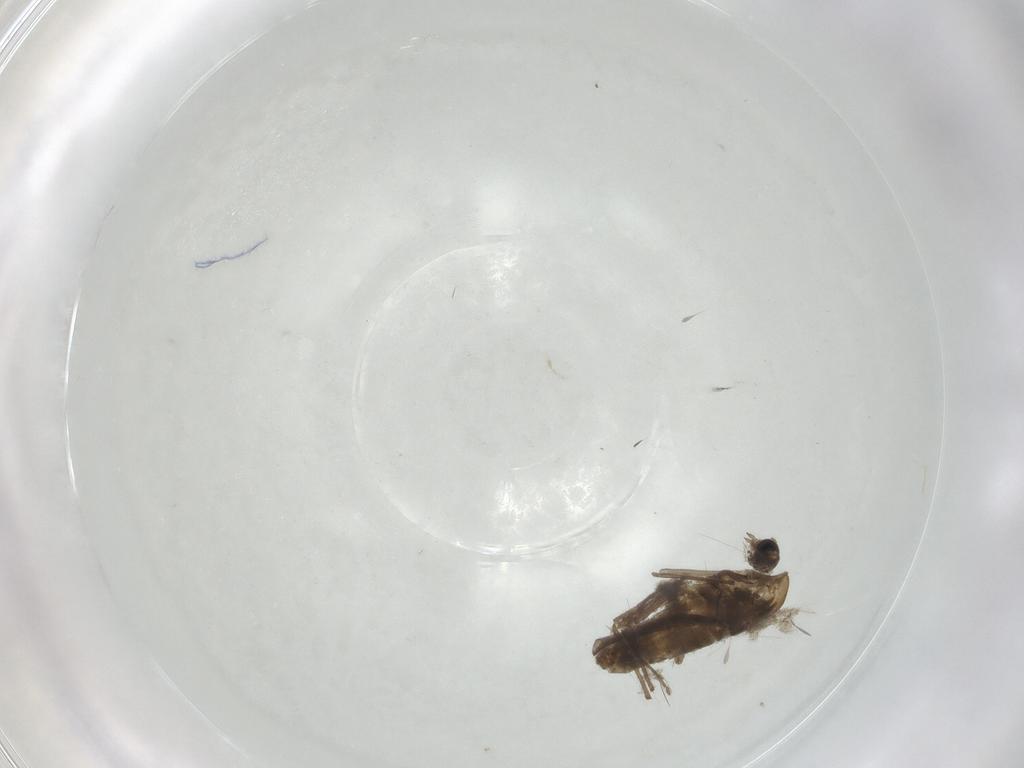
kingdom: Animalia
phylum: Arthropoda
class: Insecta
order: Diptera
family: Chironomidae
